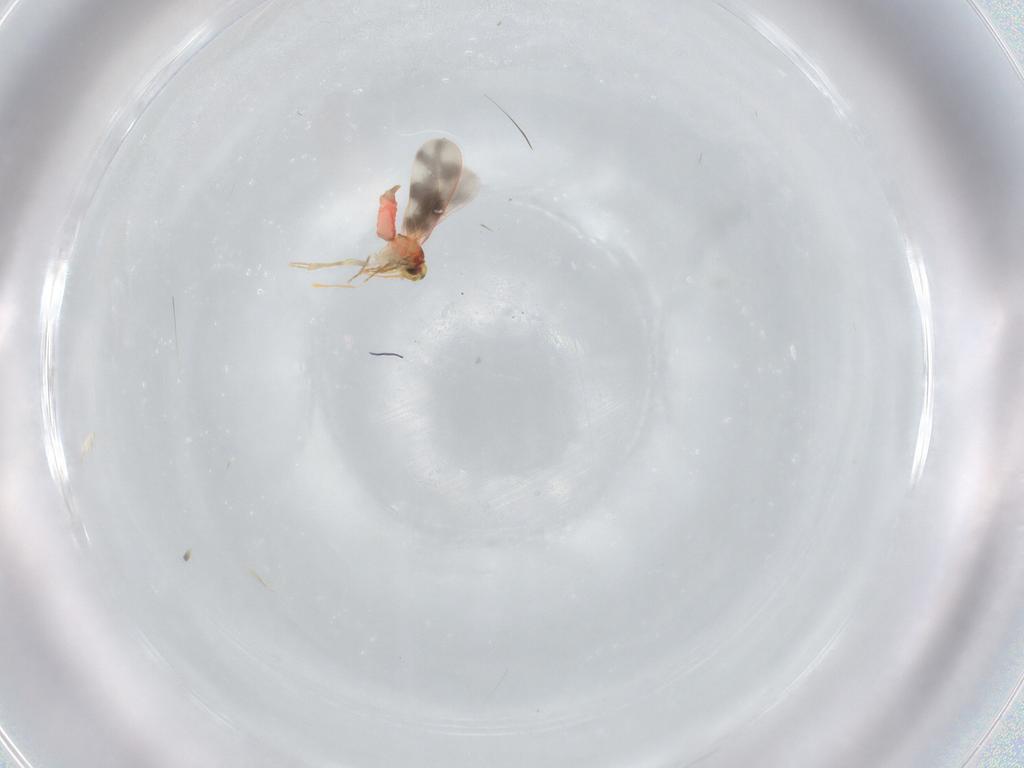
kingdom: Animalia
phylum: Arthropoda
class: Insecta
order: Hemiptera
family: Aleyrodidae
